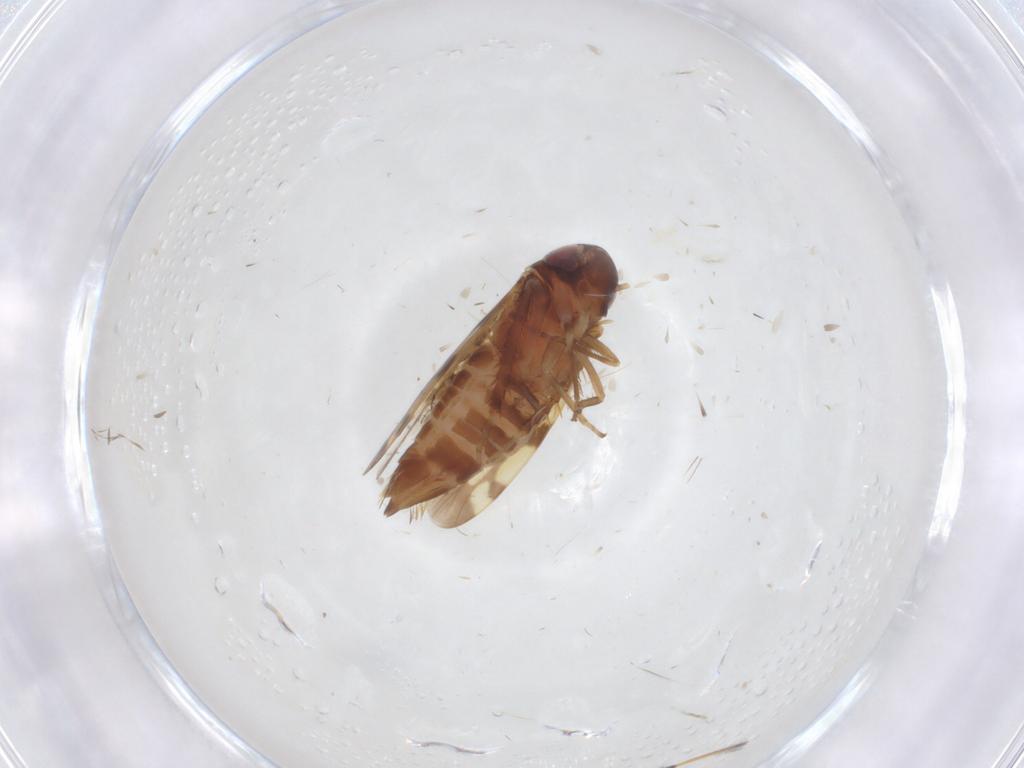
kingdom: Animalia
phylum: Arthropoda
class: Insecta
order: Hemiptera
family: Cicadellidae
